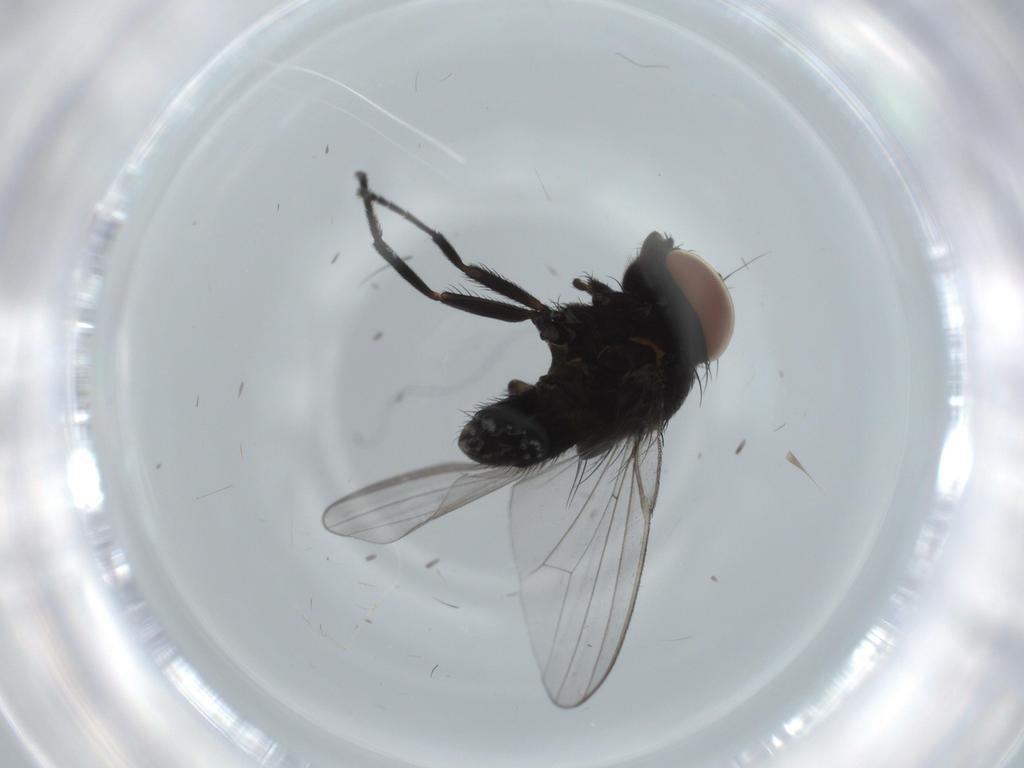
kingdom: Animalia
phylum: Arthropoda
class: Insecta
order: Diptera
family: Milichiidae
